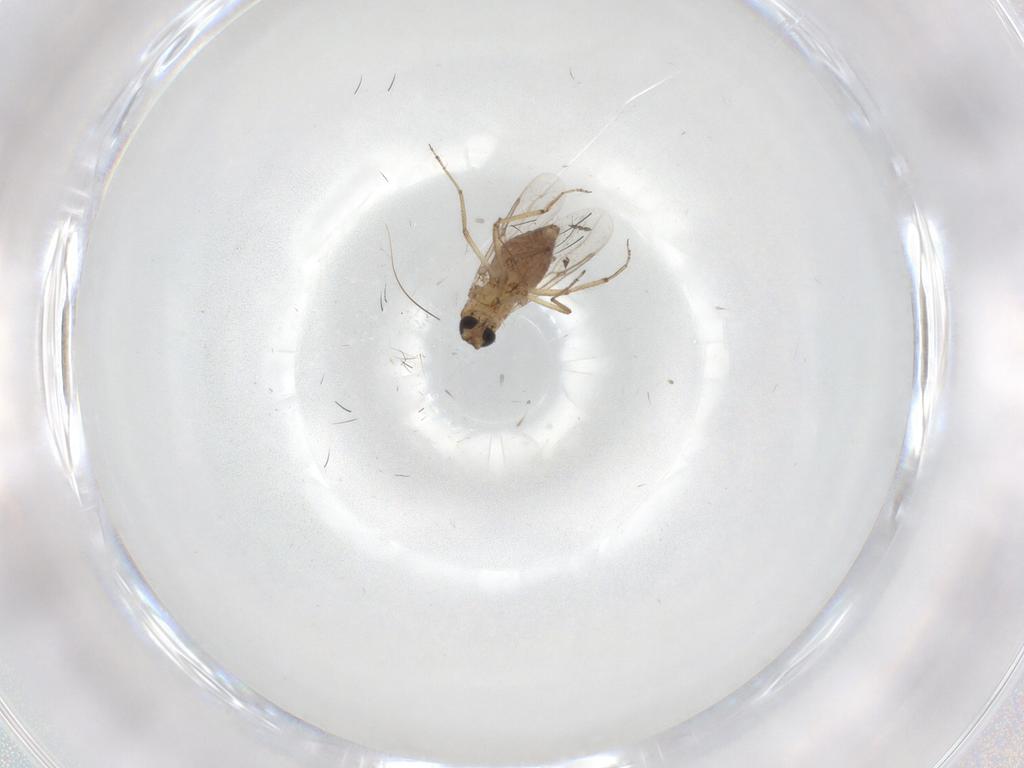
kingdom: Animalia
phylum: Arthropoda
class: Insecta
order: Diptera
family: Sciaridae
